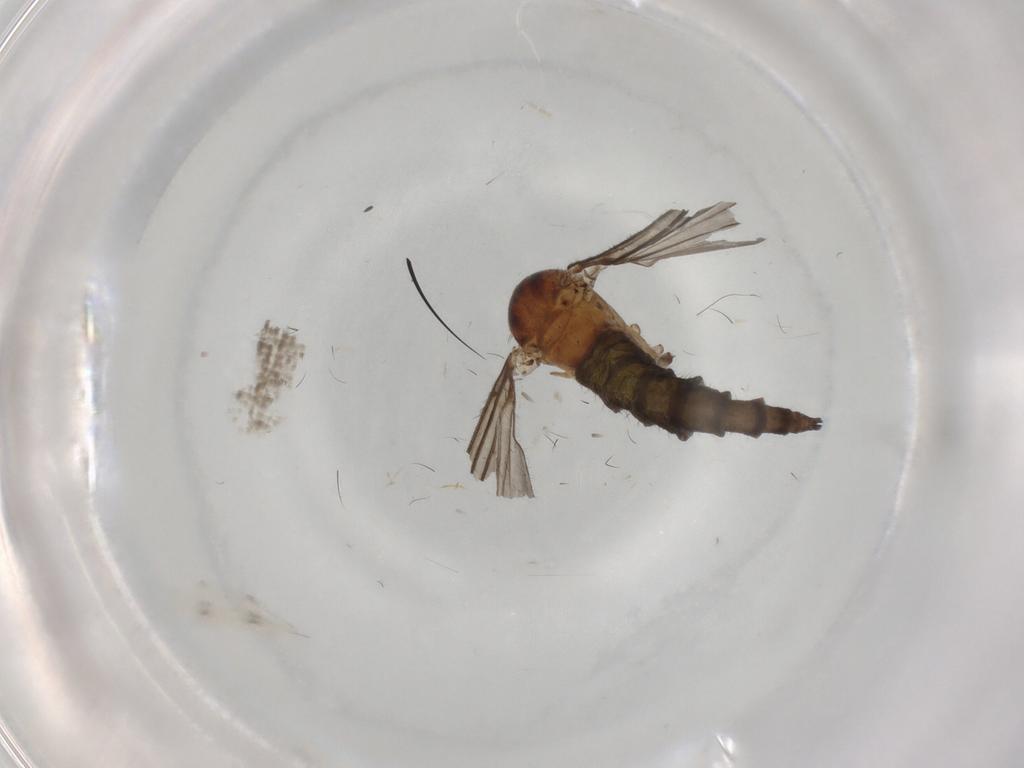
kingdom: Animalia
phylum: Arthropoda
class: Insecta
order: Diptera
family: Sciaridae
